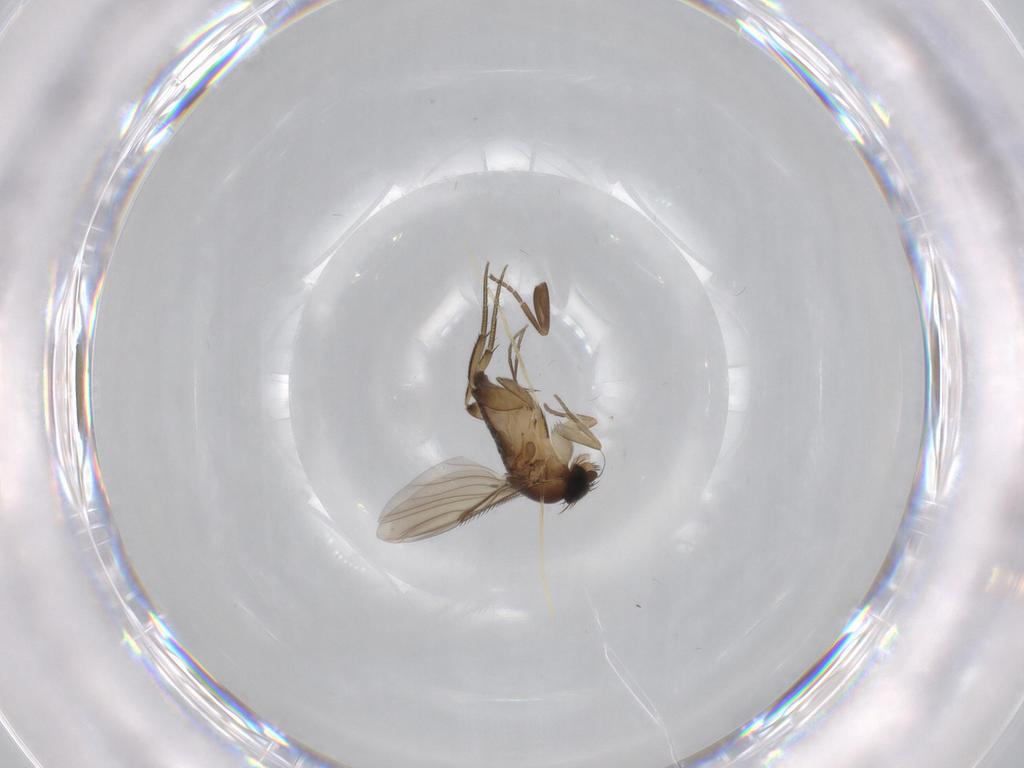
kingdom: Animalia
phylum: Arthropoda
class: Insecta
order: Diptera
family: Phoridae
